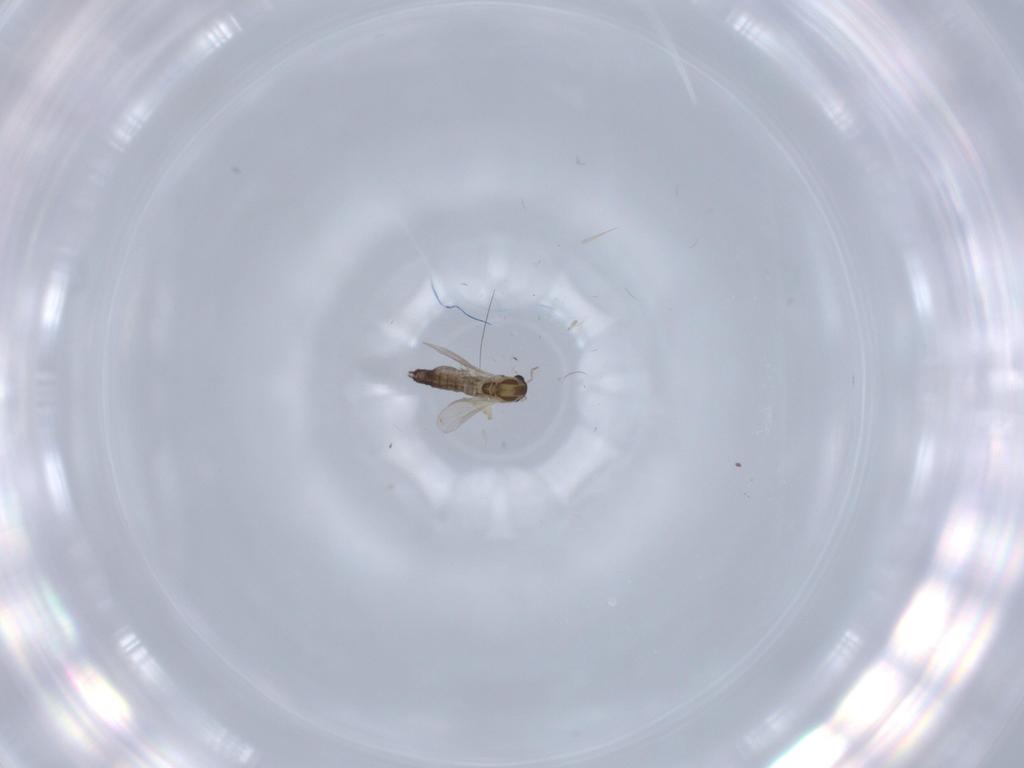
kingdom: Animalia
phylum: Arthropoda
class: Insecta
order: Diptera
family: Chironomidae
